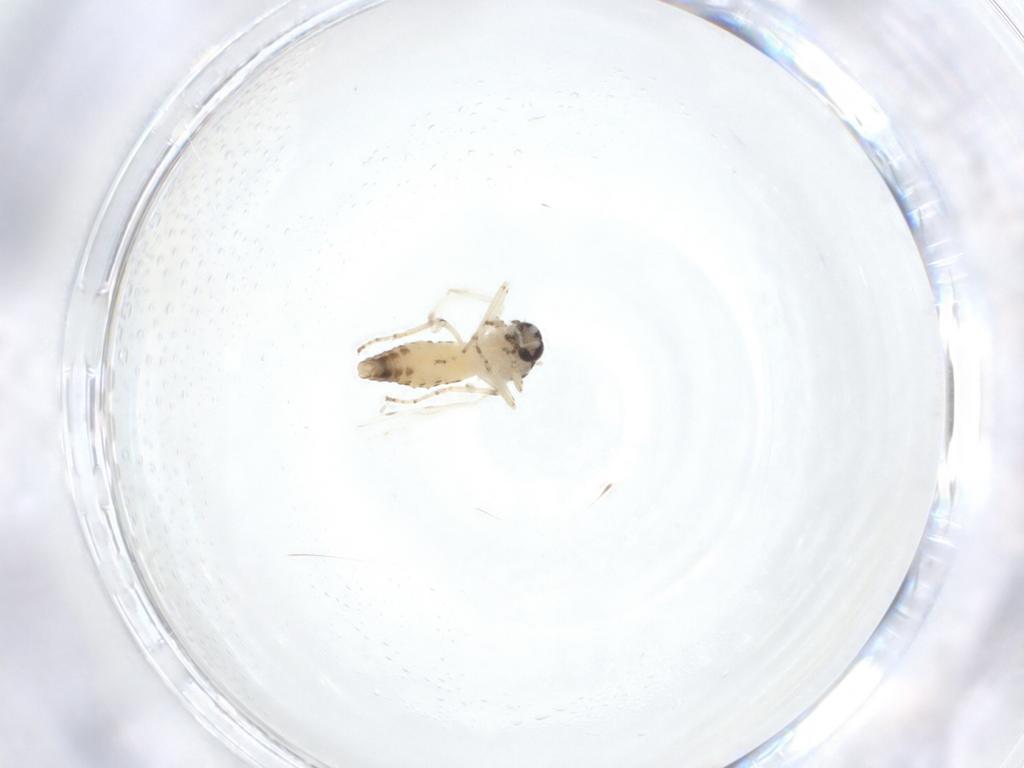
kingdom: Animalia
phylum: Arthropoda
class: Insecta
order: Diptera
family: Ceratopogonidae
